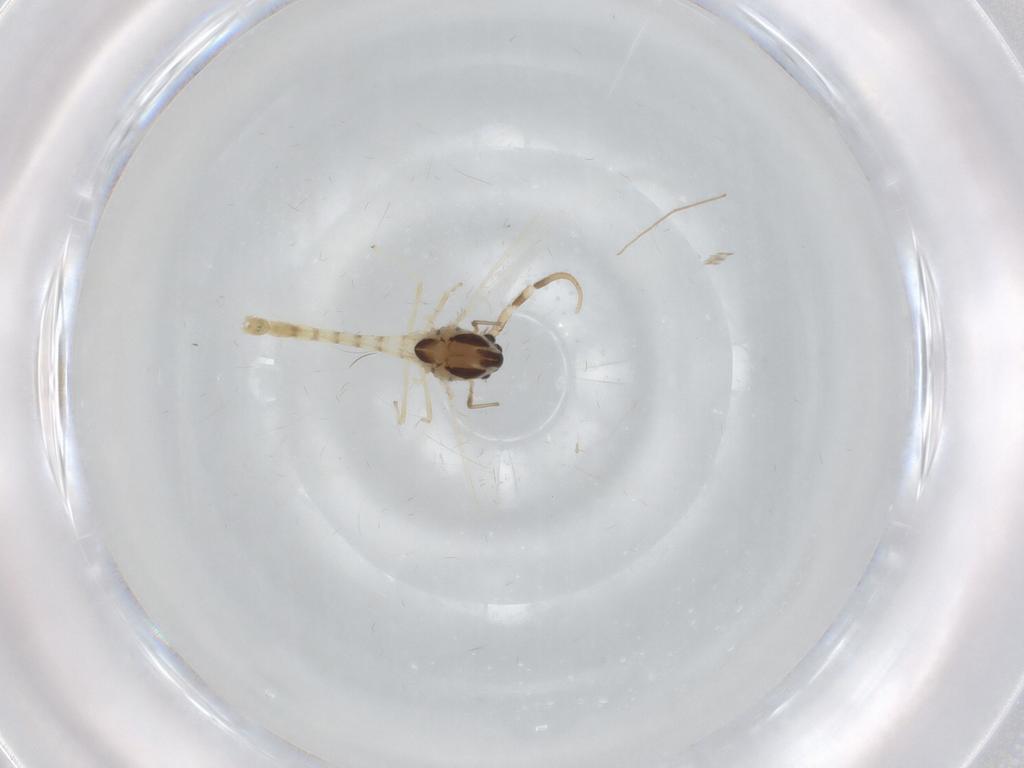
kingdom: Animalia
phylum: Arthropoda
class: Insecta
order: Diptera
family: Chironomidae
